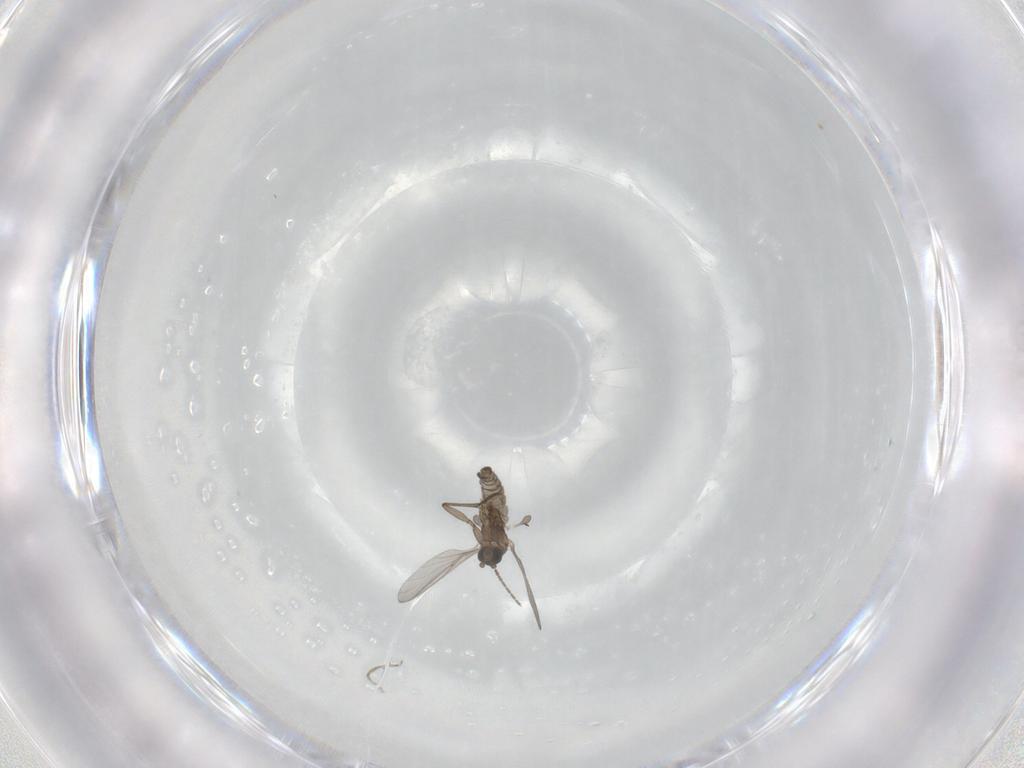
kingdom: Animalia
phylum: Arthropoda
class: Insecta
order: Diptera
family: Sciaridae
